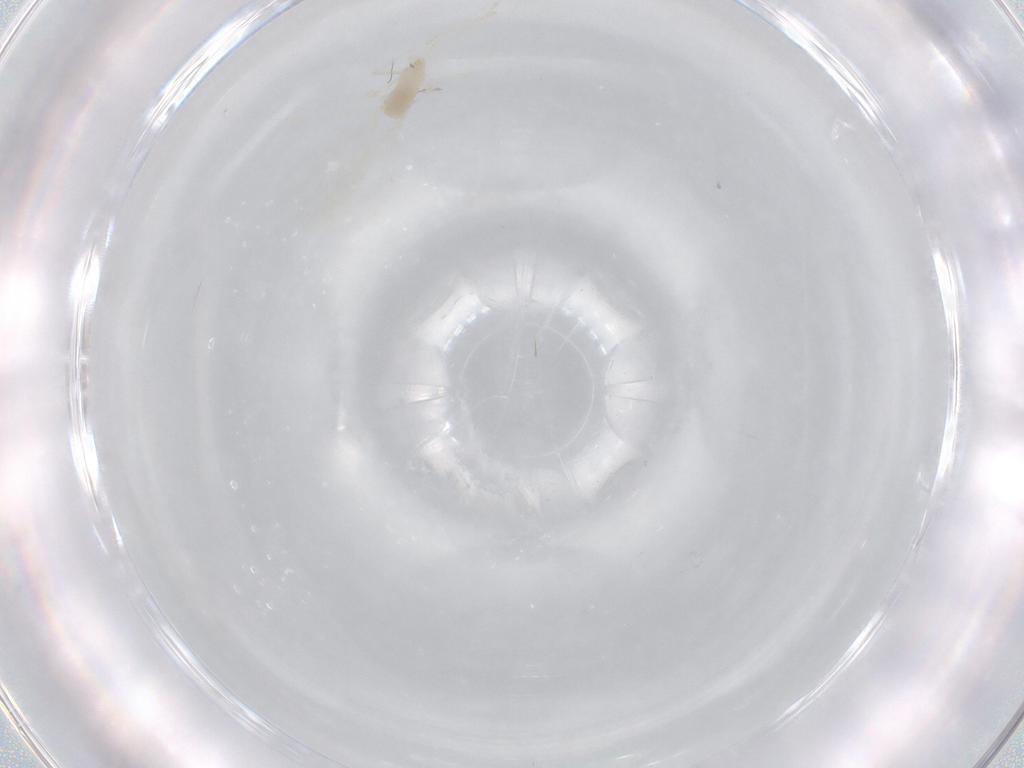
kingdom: Animalia
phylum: Arthropoda
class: Insecta
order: Diptera
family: Cecidomyiidae
